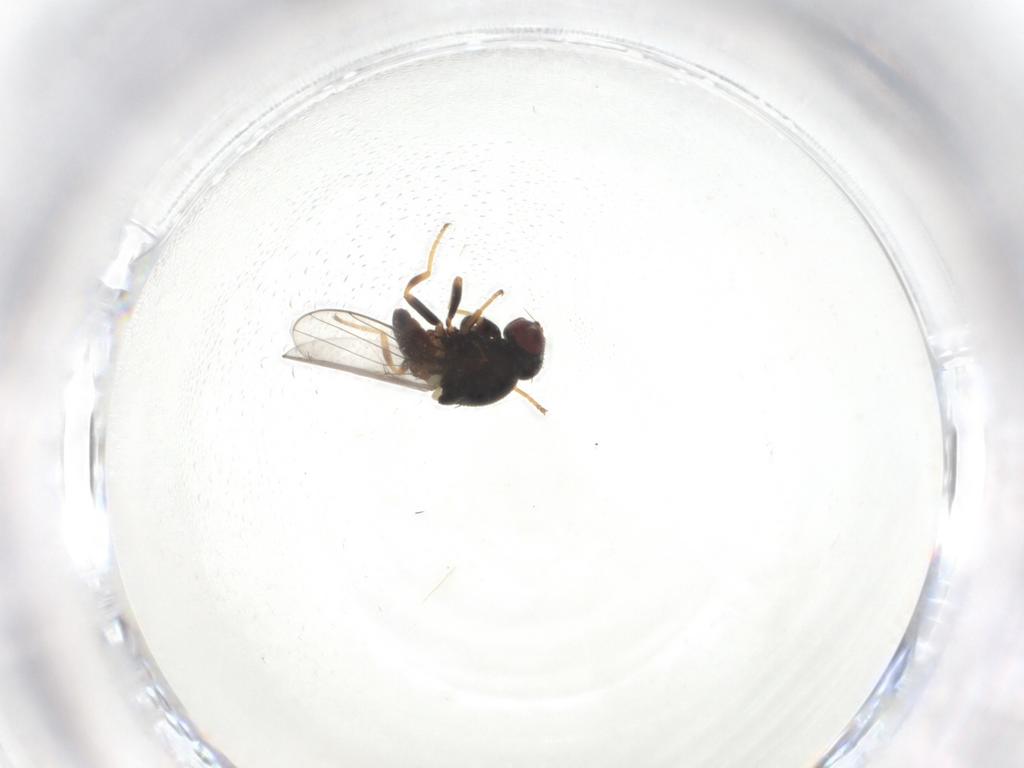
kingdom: Animalia
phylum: Arthropoda
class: Insecta
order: Diptera
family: Chloropidae
